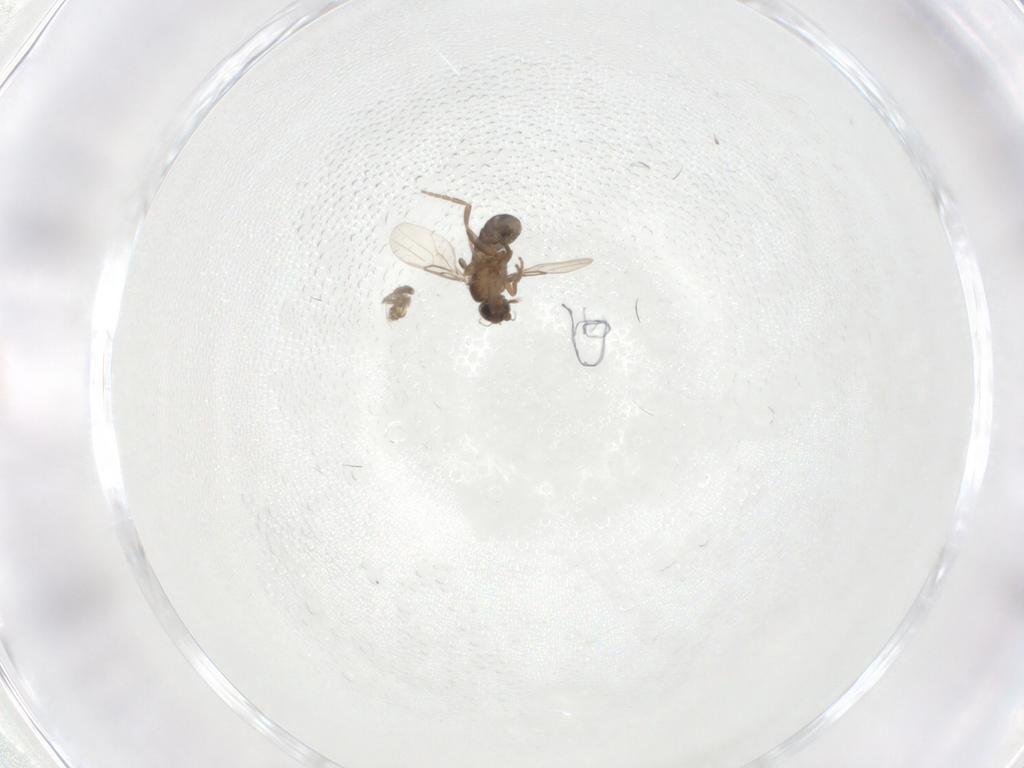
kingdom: Animalia
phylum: Arthropoda
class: Insecta
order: Diptera
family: Phoridae
